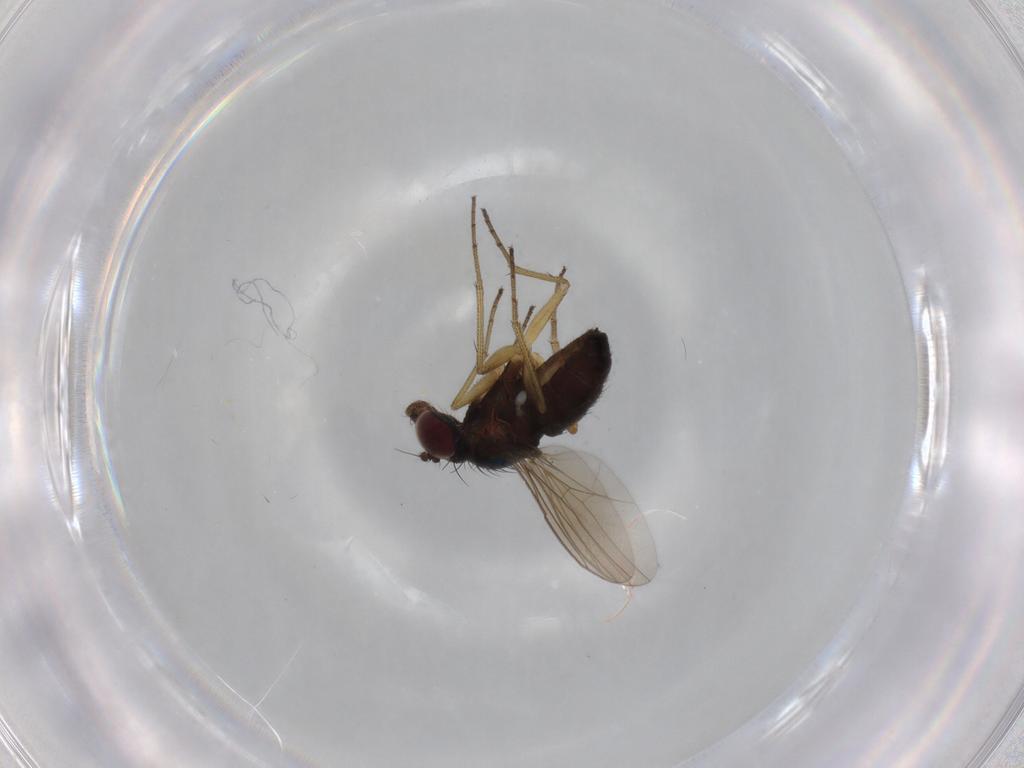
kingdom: Animalia
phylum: Arthropoda
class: Insecta
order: Diptera
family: Dolichopodidae
